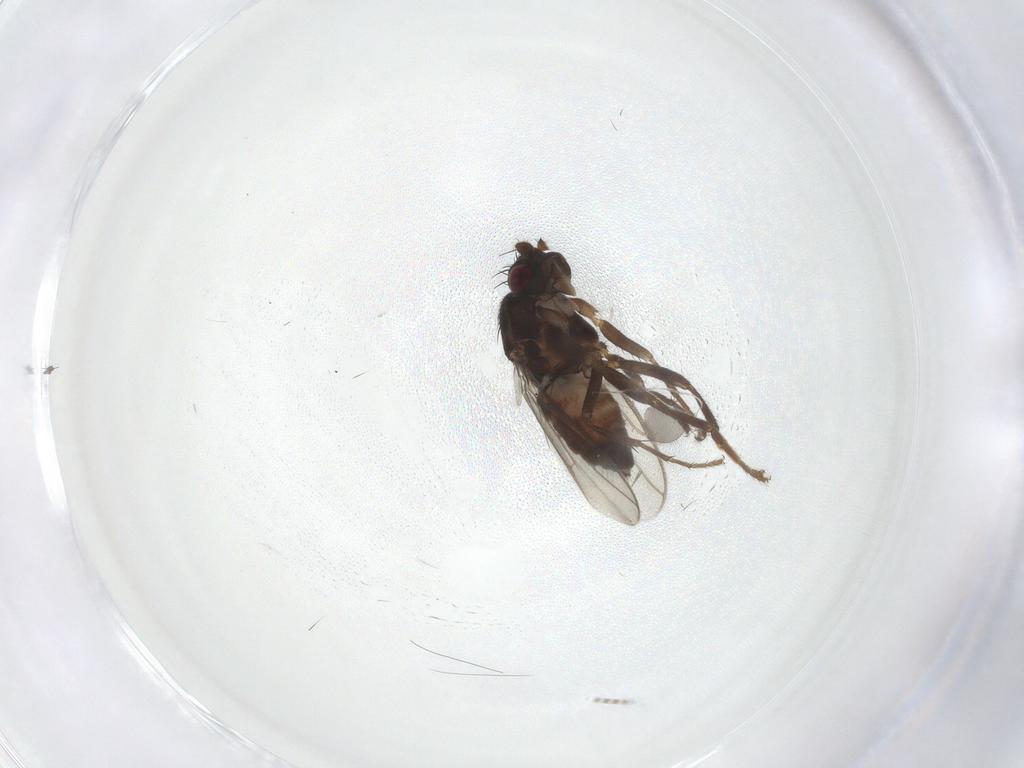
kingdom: Animalia
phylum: Arthropoda
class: Insecta
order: Diptera
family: Sphaeroceridae
